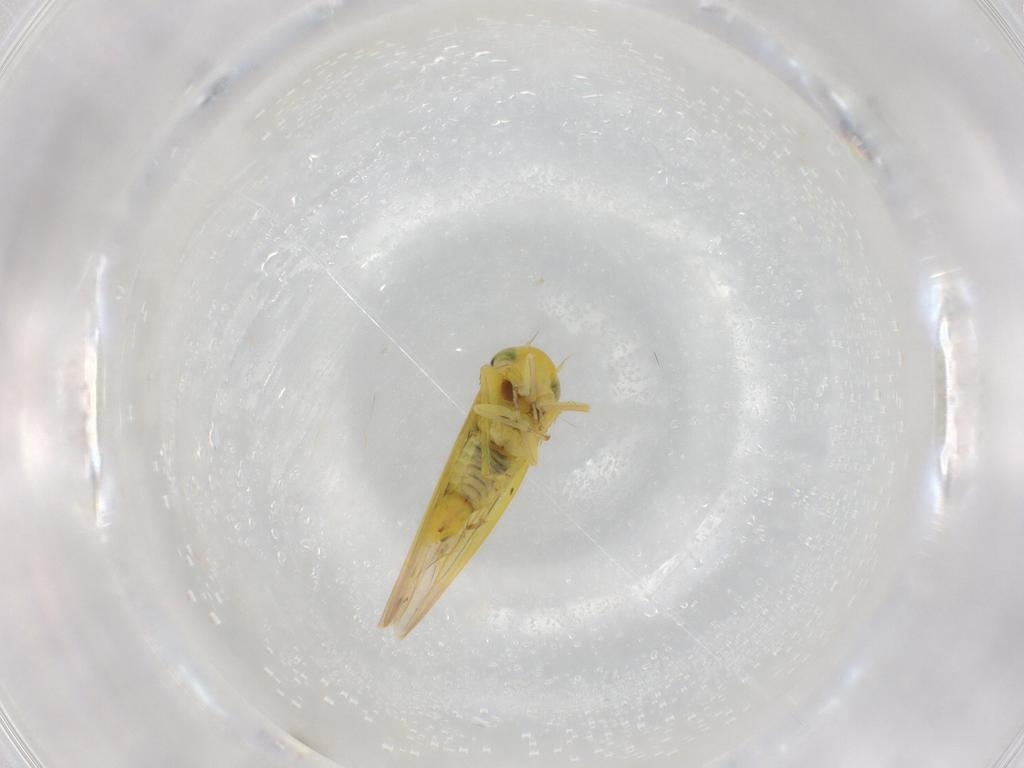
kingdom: Animalia
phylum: Arthropoda
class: Insecta
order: Hemiptera
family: Cicadellidae
